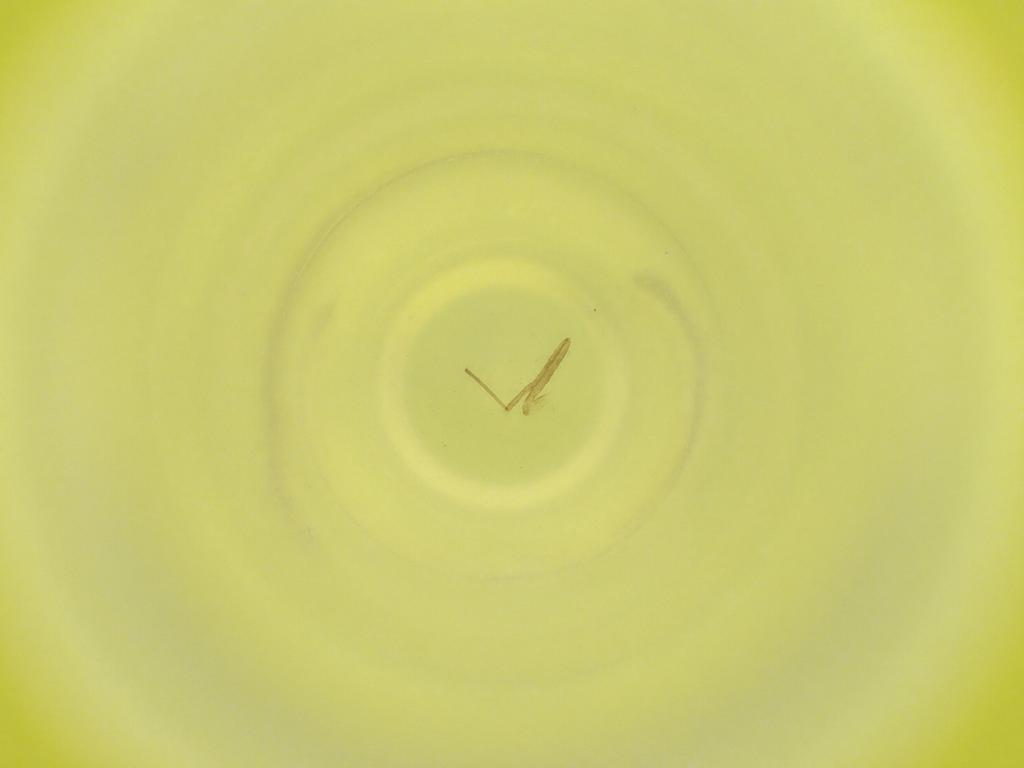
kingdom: Animalia
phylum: Arthropoda
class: Insecta
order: Diptera
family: Cecidomyiidae
